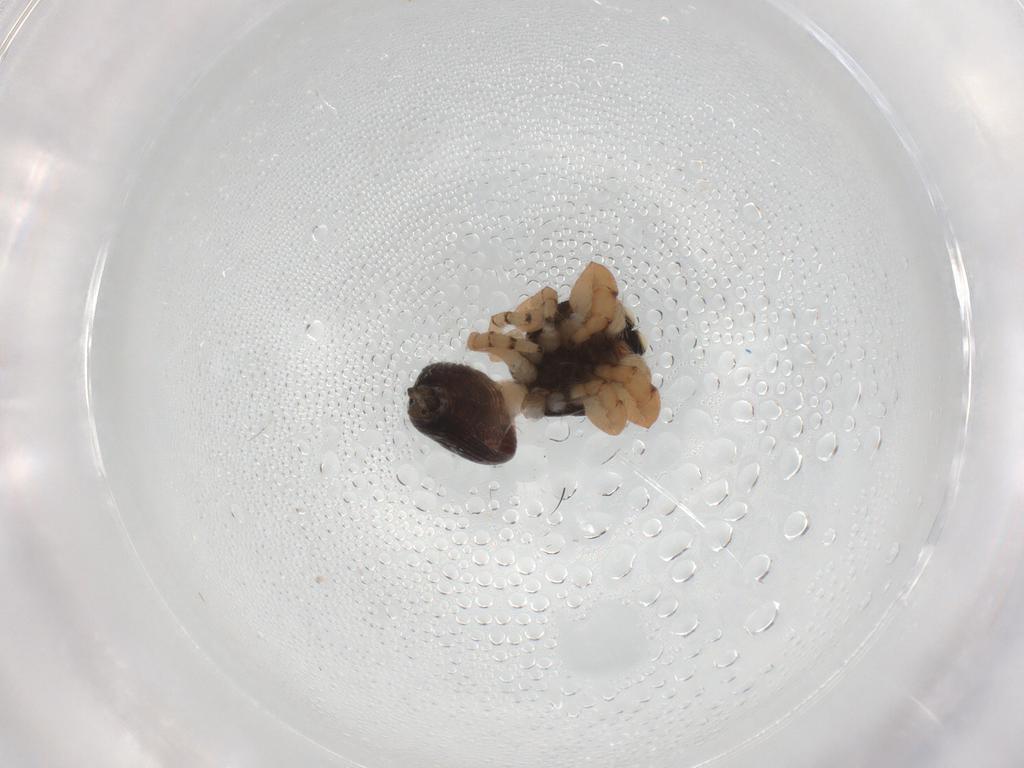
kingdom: Animalia
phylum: Arthropoda
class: Arachnida
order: Araneae
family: Salticidae
